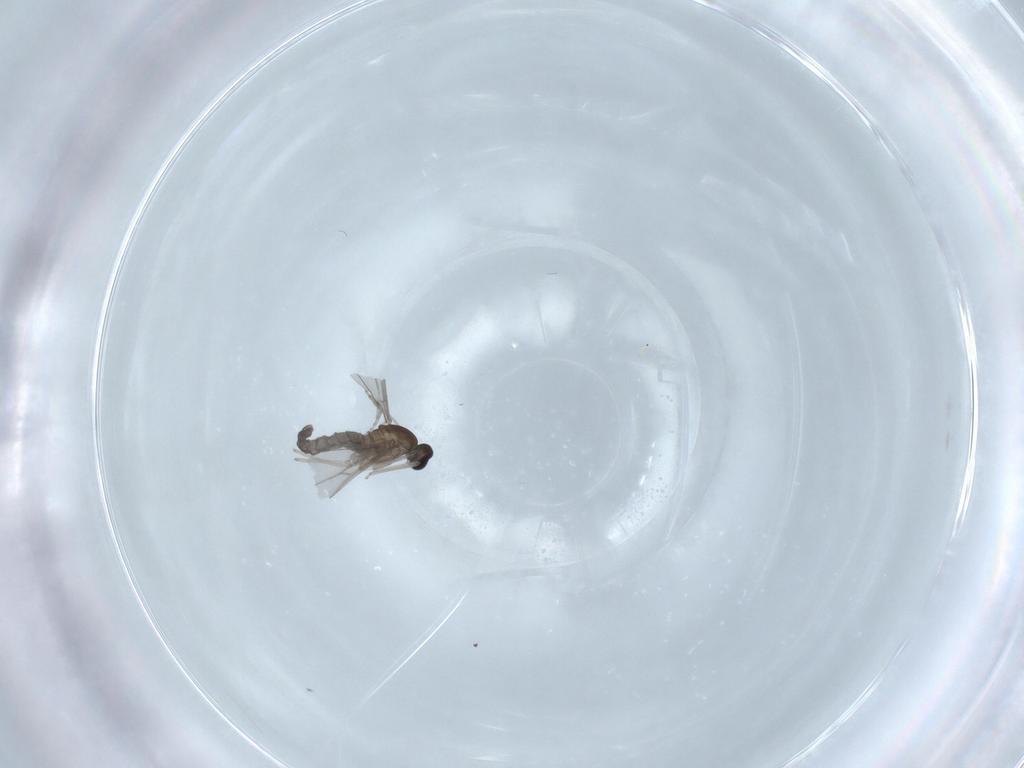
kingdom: Animalia
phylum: Arthropoda
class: Insecta
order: Diptera
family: Cecidomyiidae
